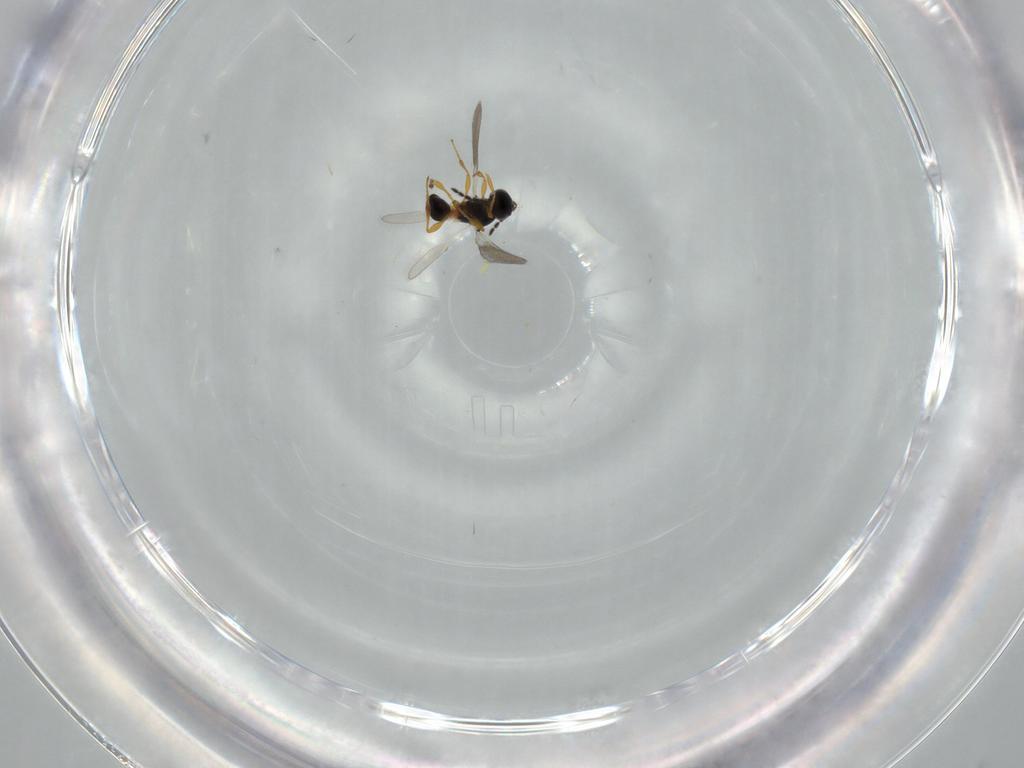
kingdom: Animalia
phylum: Arthropoda
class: Insecta
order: Hymenoptera
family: Platygastridae
